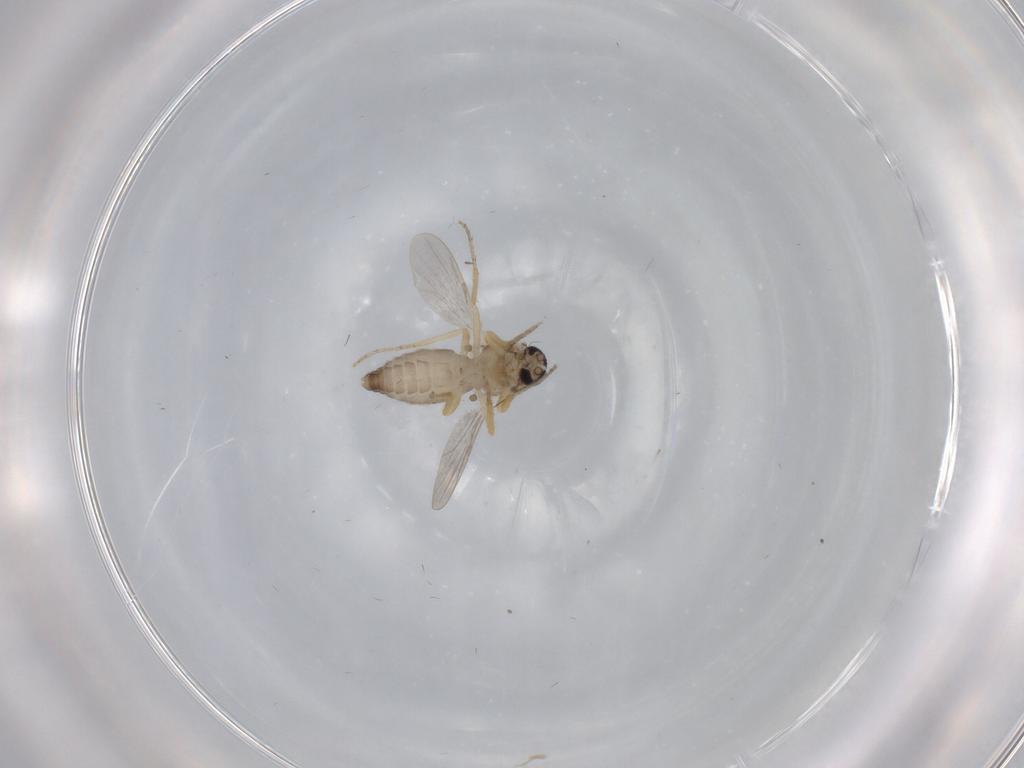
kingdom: Animalia
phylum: Arthropoda
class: Insecta
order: Diptera
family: Ceratopogonidae
